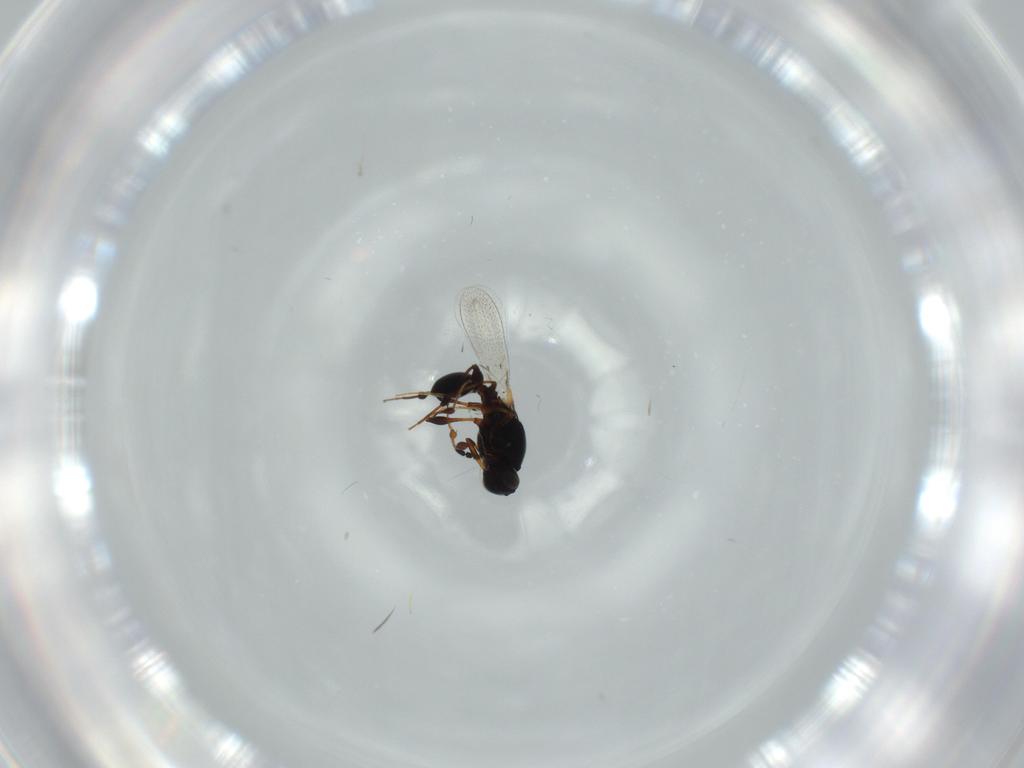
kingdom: Animalia
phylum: Arthropoda
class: Insecta
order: Hymenoptera
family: Platygastridae
